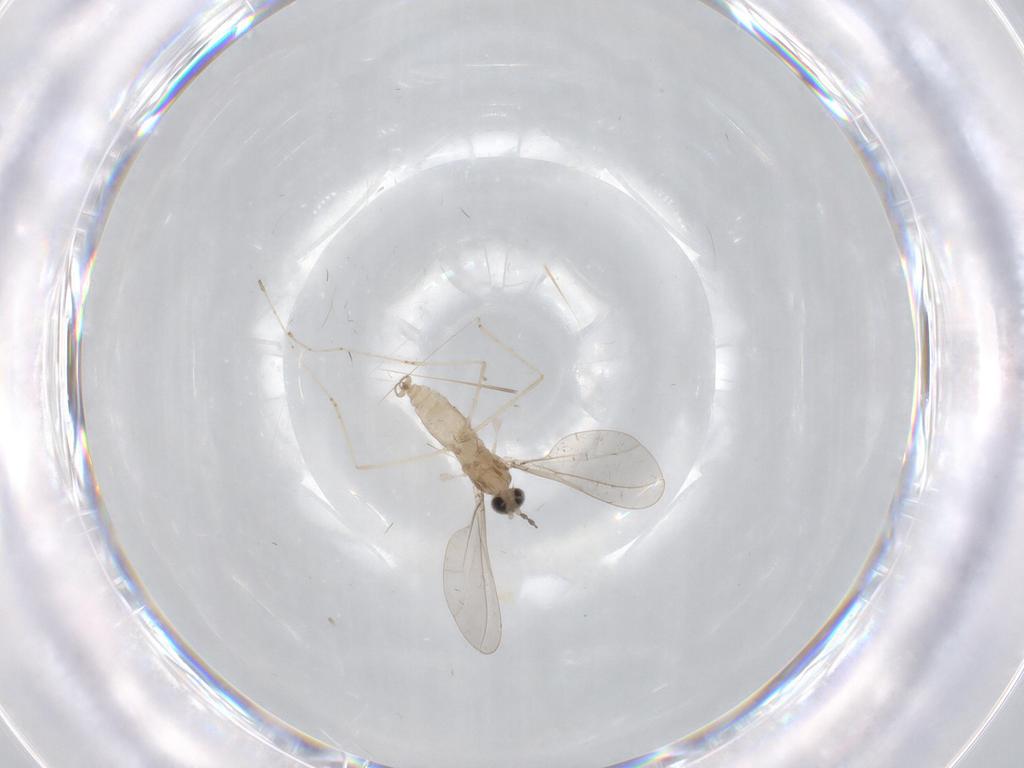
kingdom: Animalia
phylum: Arthropoda
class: Insecta
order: Diptera
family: Cecidomyiidae
